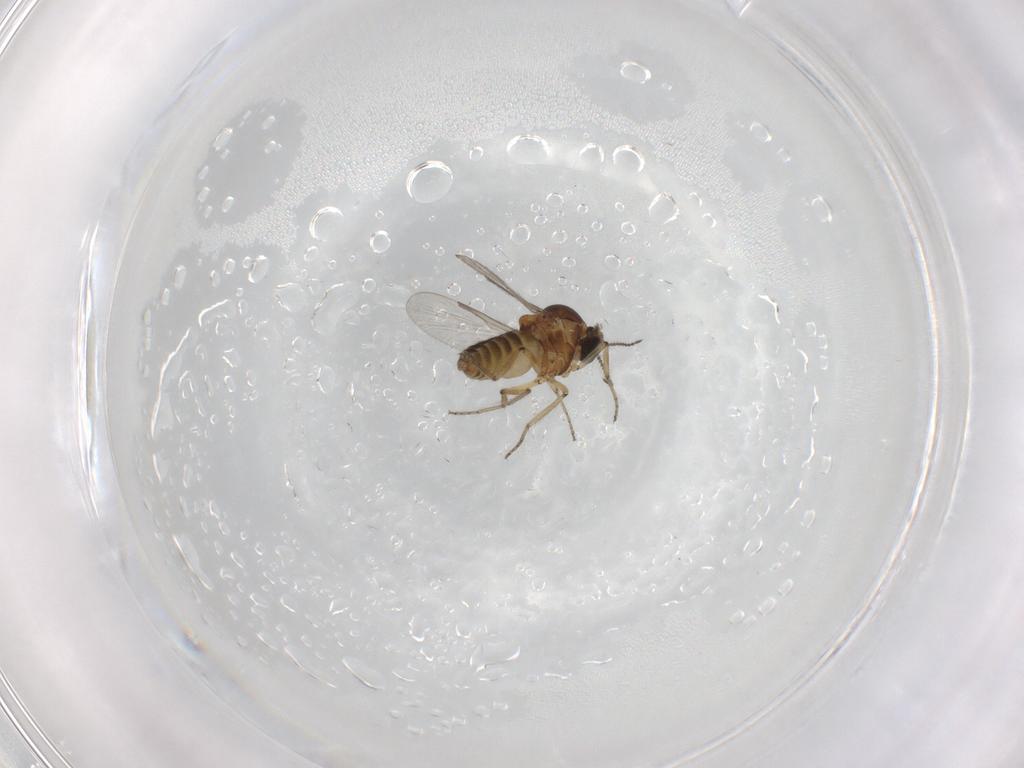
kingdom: Animalia
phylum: Arthropoda
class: Insecta
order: Diptera
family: Ceratopogonidae
